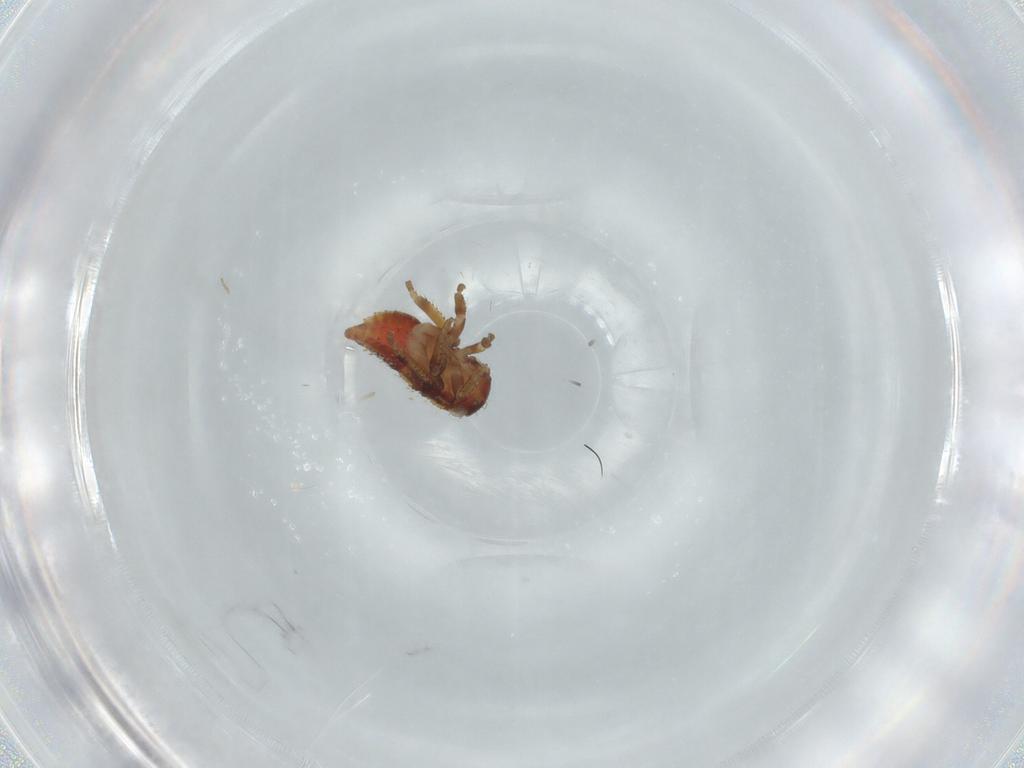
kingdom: Animalia
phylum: Arthropoda
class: Insecta
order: Hemiptera
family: Cicadellidae
